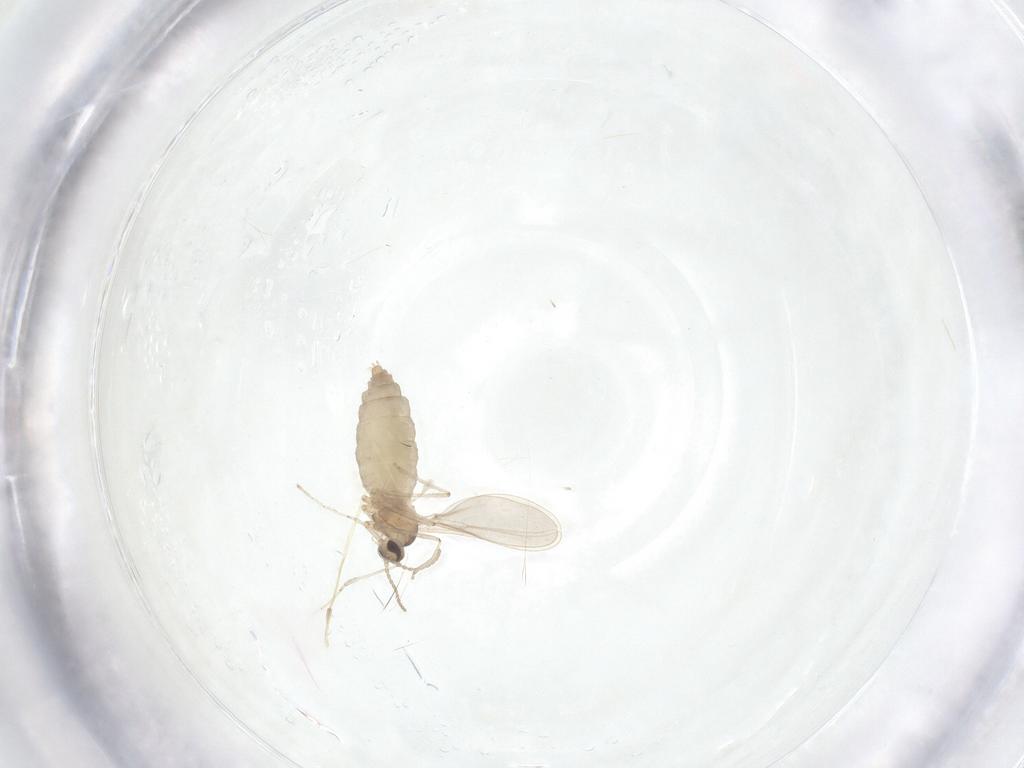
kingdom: Animalia
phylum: Arthropoda
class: Insecta
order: Diptera
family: Cecidomyiidae
